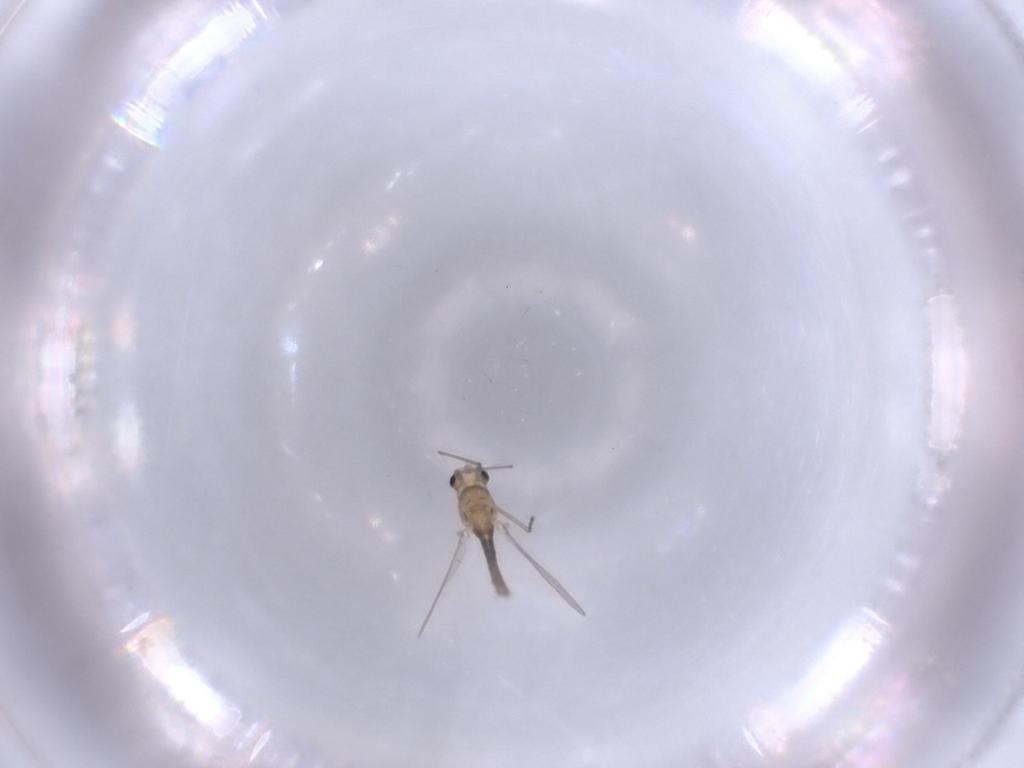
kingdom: Animalia
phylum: Arthropoda
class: Insecta
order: Diptera
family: Chironomidae
